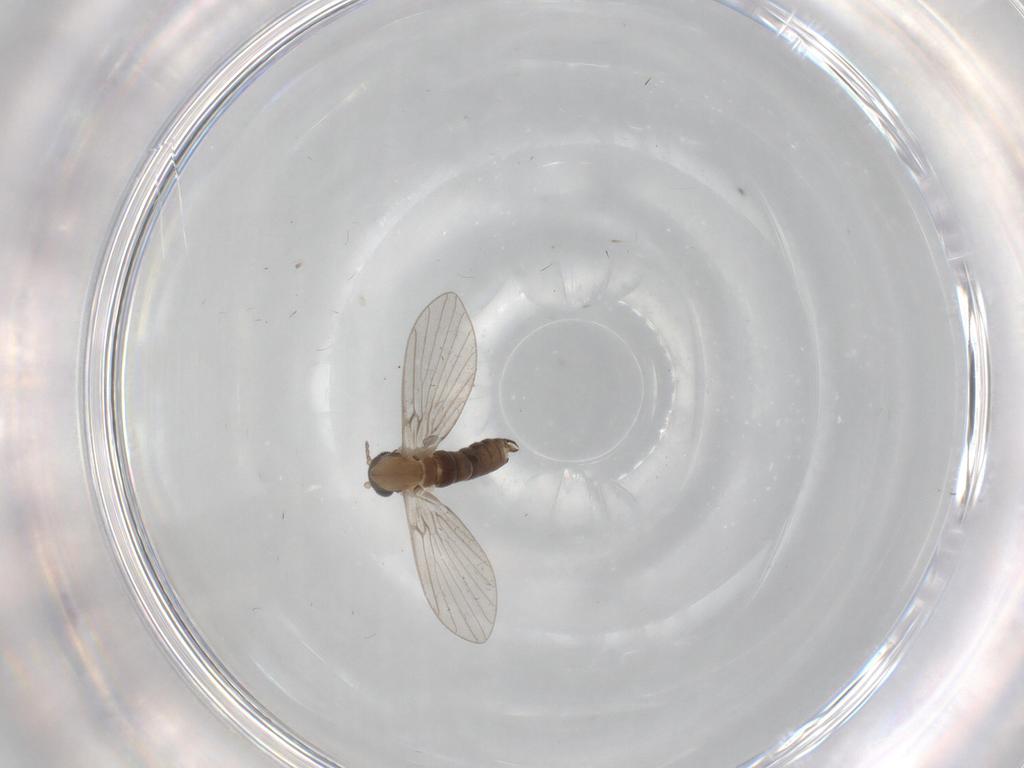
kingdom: Animalia
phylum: Arthropoda
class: Insecta
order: Diptera
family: Psychodidae
